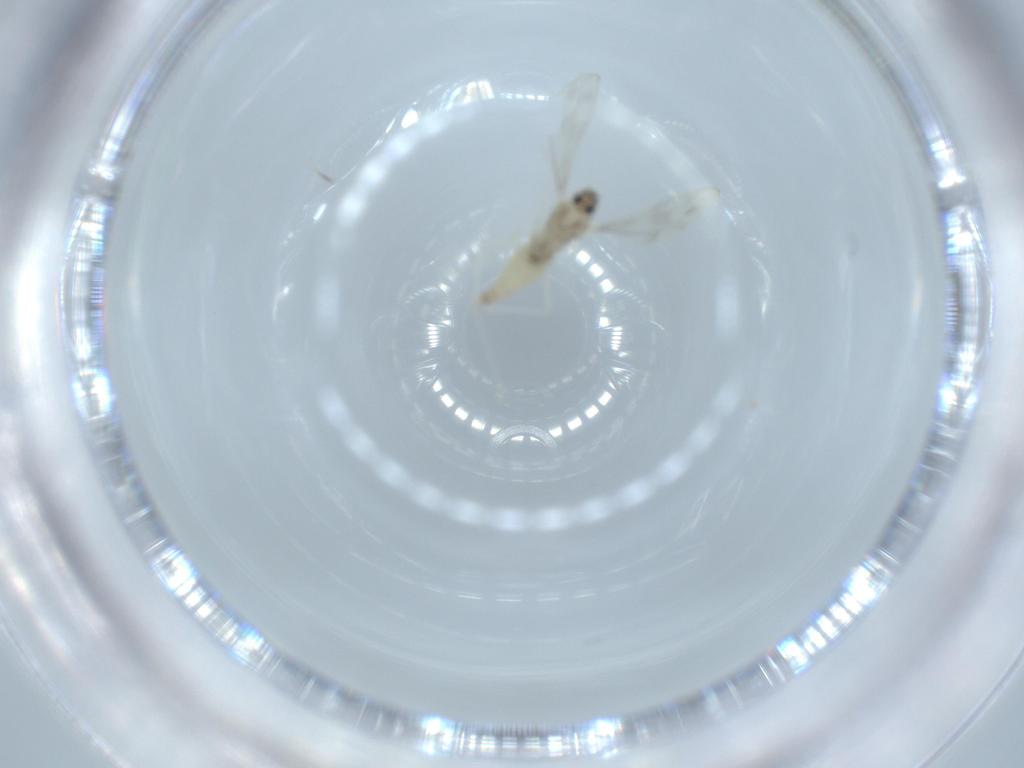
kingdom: Animalia
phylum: Arthropoda
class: Insecta
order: Diptera
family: Cecidomyiidae
